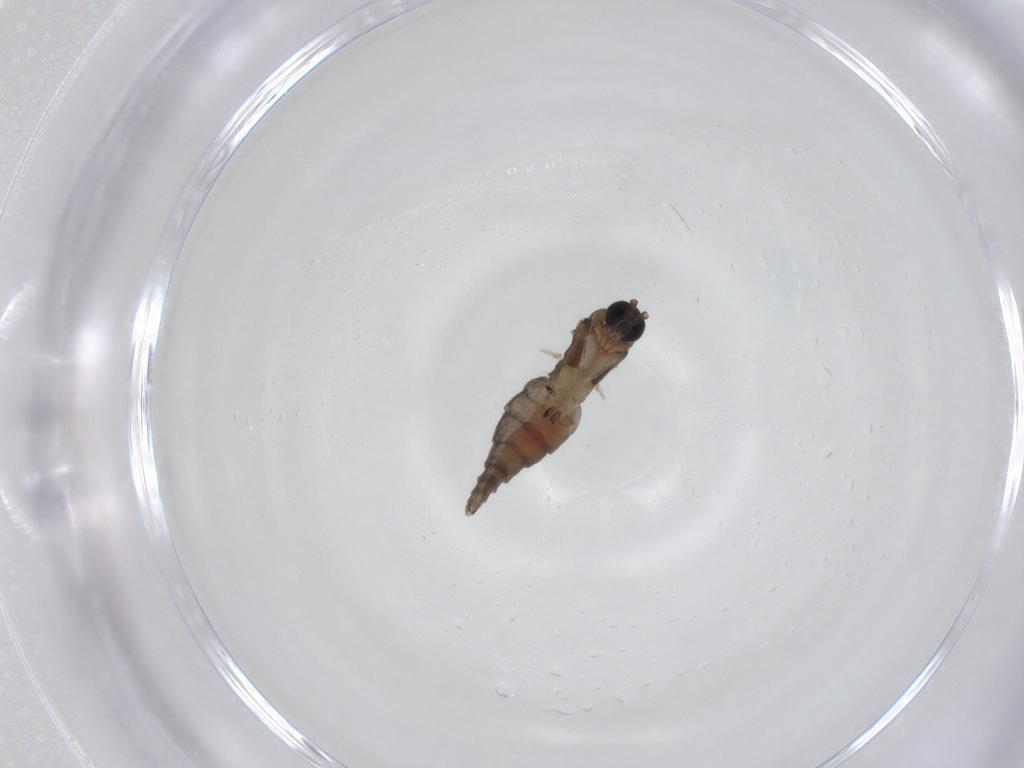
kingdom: Animalia
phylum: Arthropoda
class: Insecta
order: Diptera
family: Sciaridae
